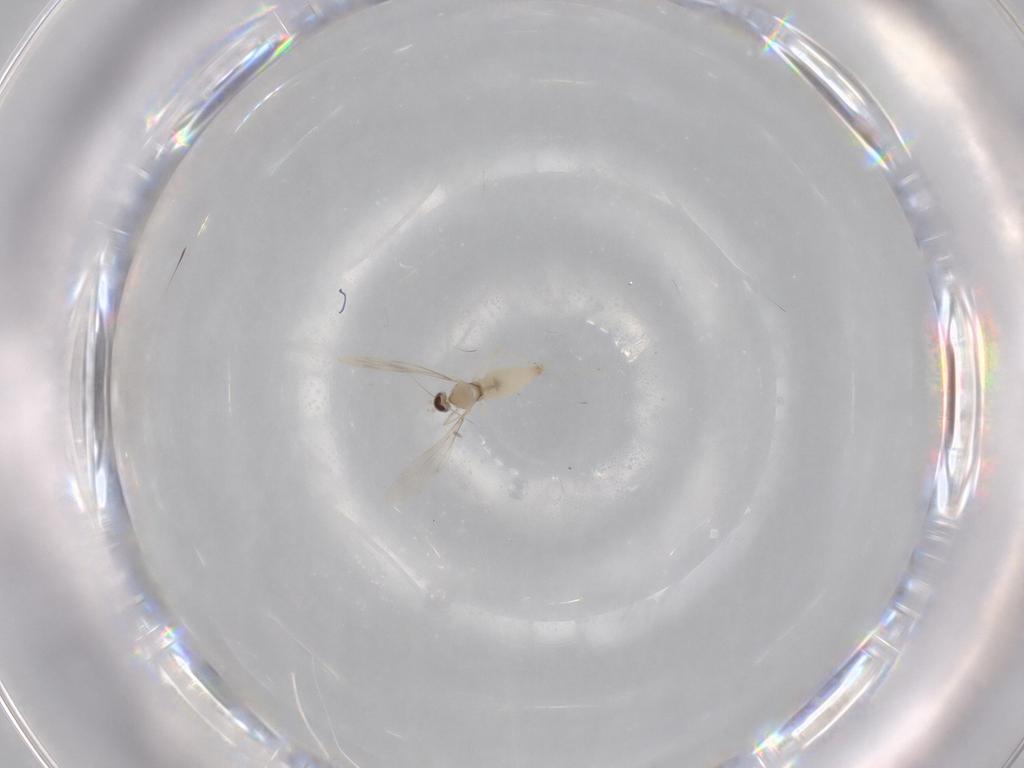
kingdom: Animalia
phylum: Arthropoda
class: Insecta
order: Diptera
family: Cecidomyiidae
